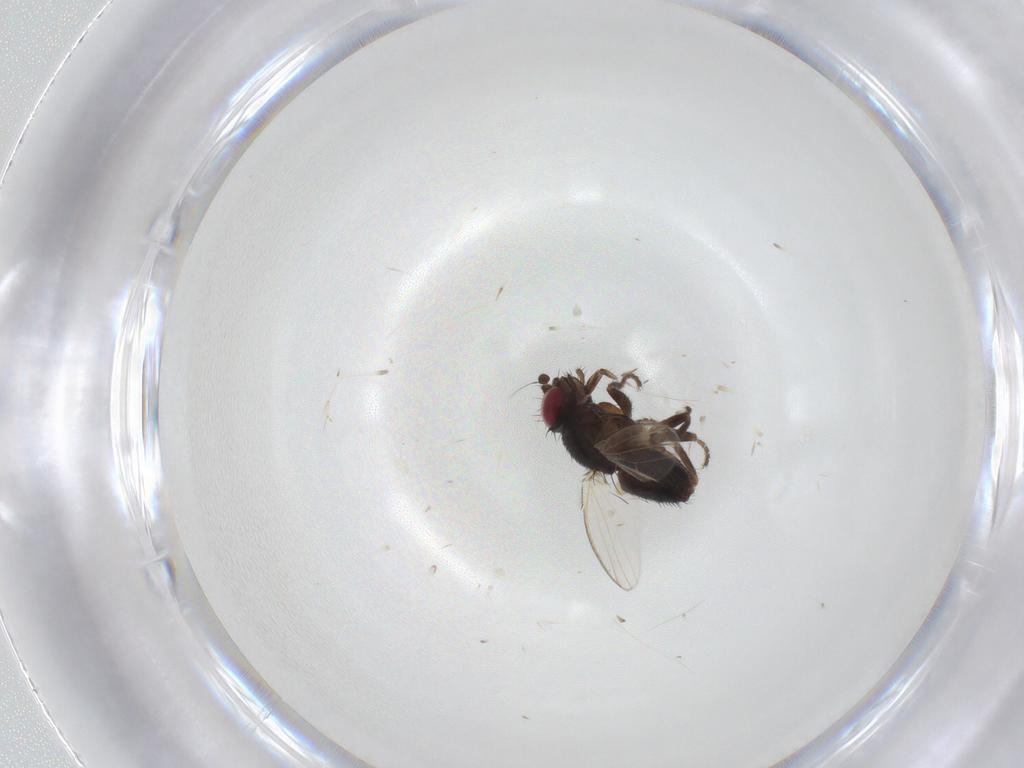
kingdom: Animalia
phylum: Arthropoda
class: Insecta
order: Diptera
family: Milichiidae
